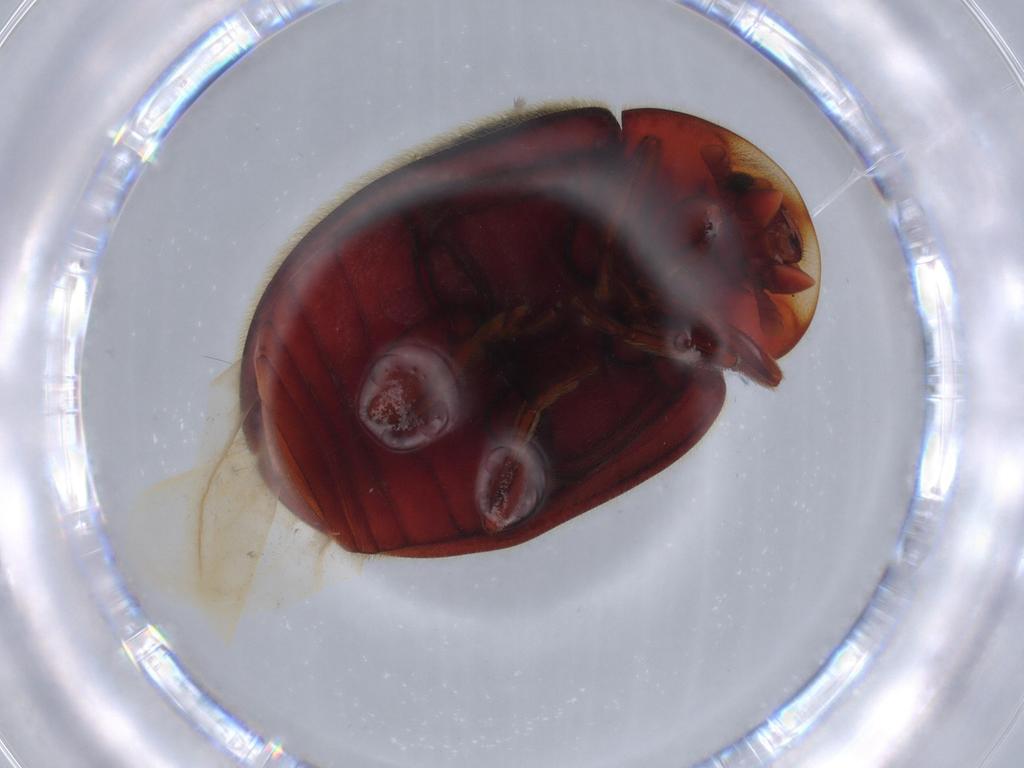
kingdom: Animalia
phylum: Arthropoda
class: Insecta
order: Coleoptera
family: Coccinellidae
